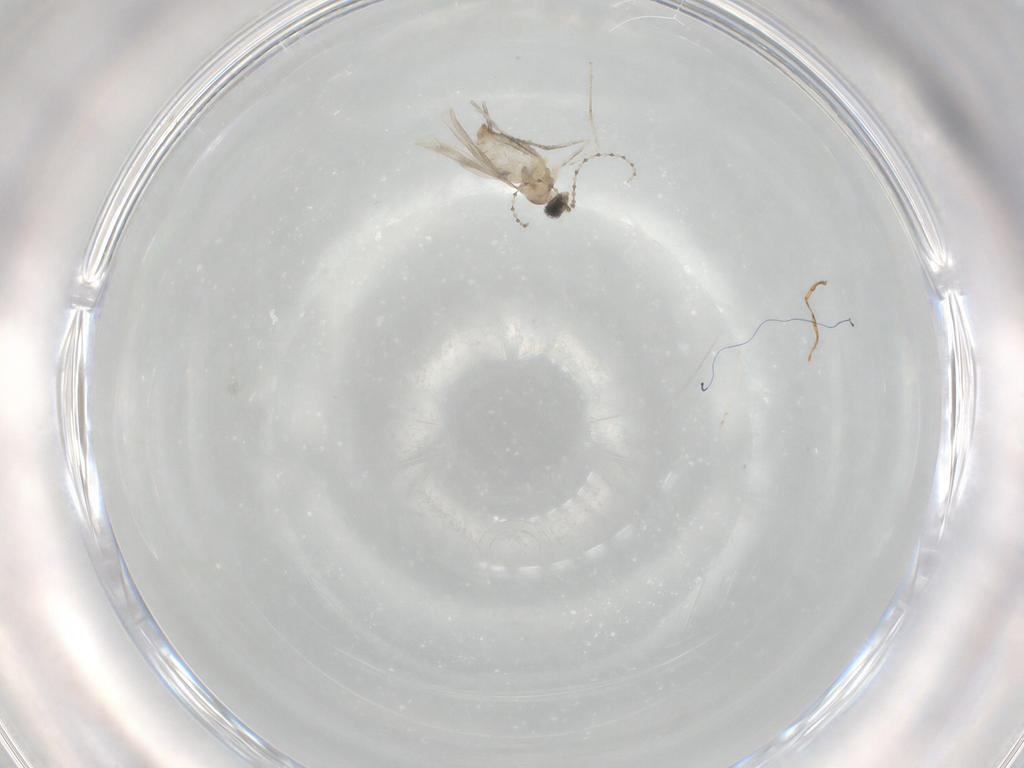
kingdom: Animalia
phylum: Arthropoda
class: Insecta
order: Diptera
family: Cecidomyiidae
